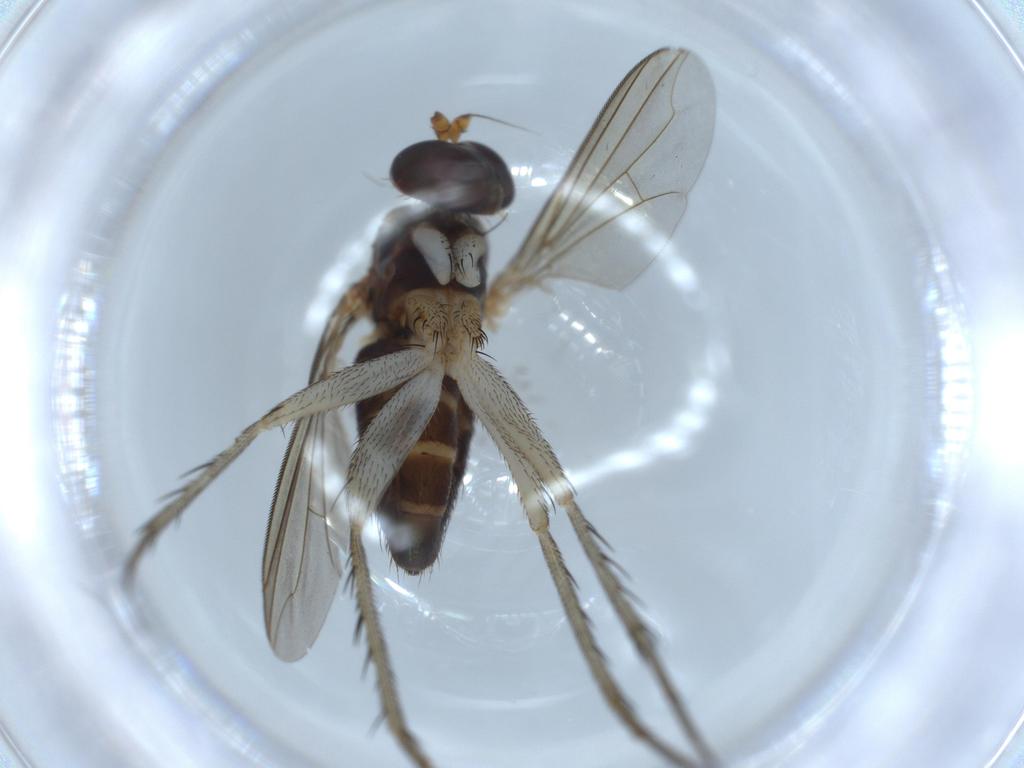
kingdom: Animalia
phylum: Arthropoda
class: Insecta
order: Diptera
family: Dolichopodidae
